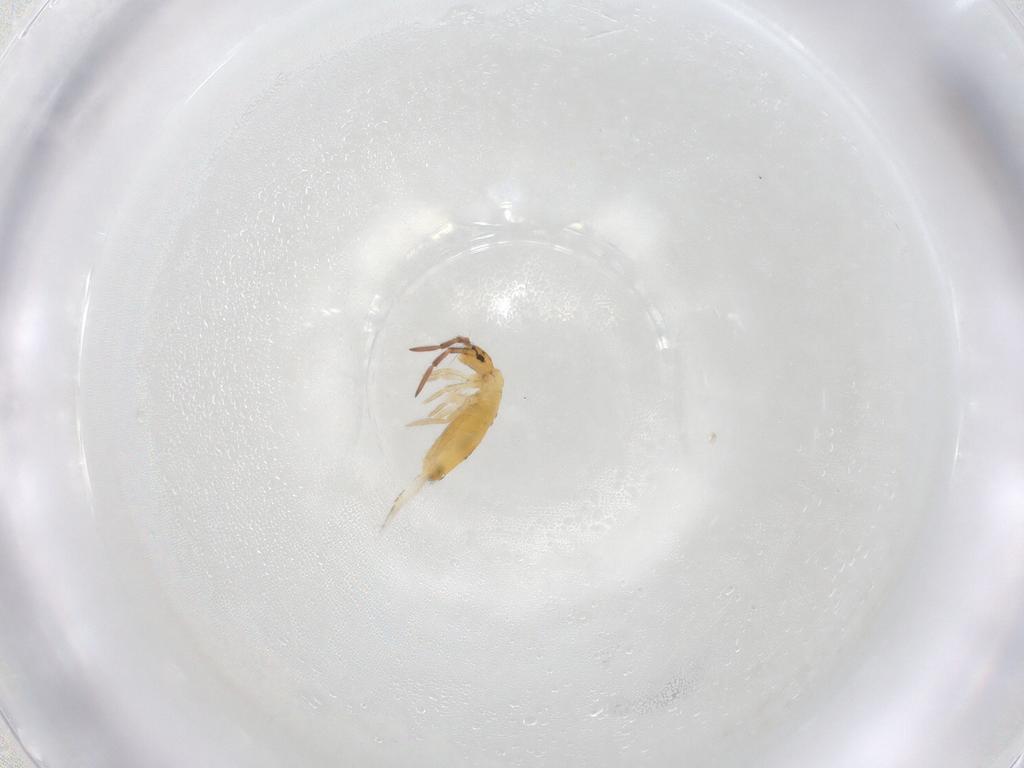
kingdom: Animalia
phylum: Arthropoda
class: Collembola
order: Entomobryomorpha
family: Entomobryidae
